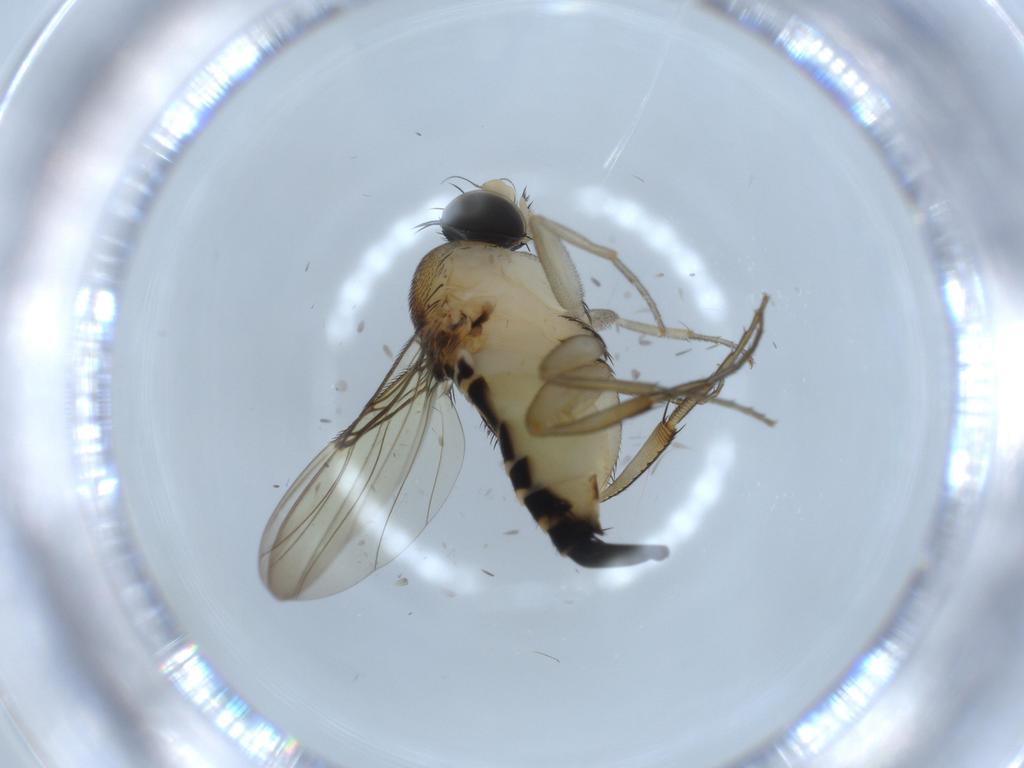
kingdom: Animalia
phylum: Arthropoda
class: Insecta
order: Diptera
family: Phoridae
